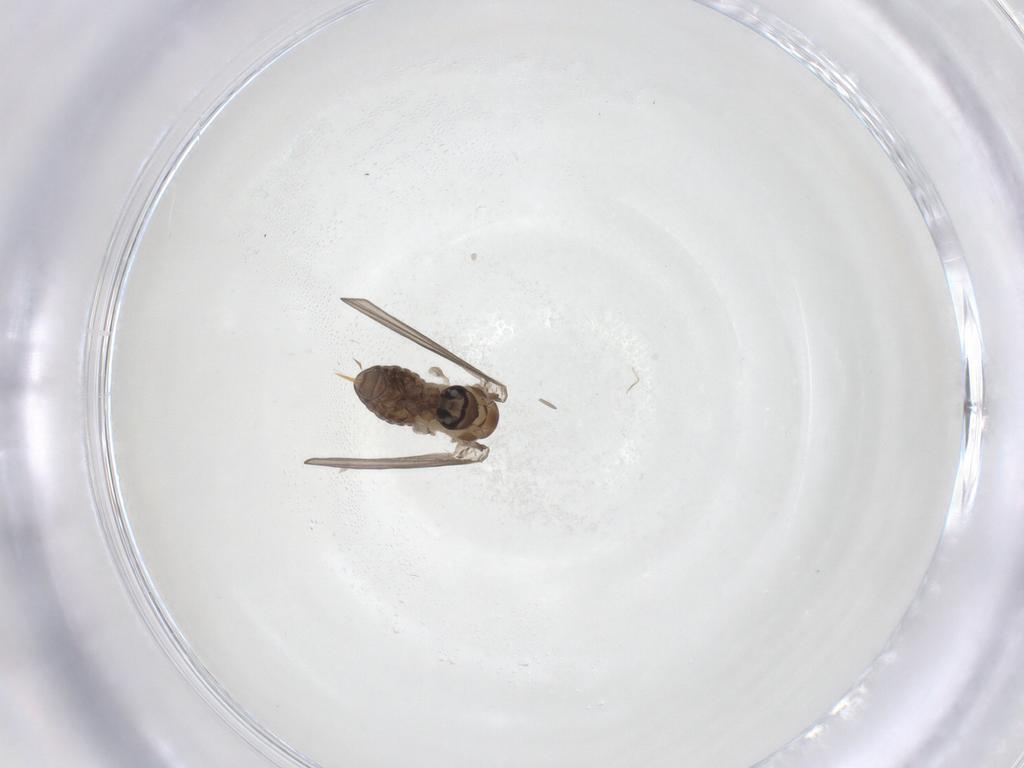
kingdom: Animalia
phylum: Arthropoda
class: Insecta
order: Diptera
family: Psychodidae
